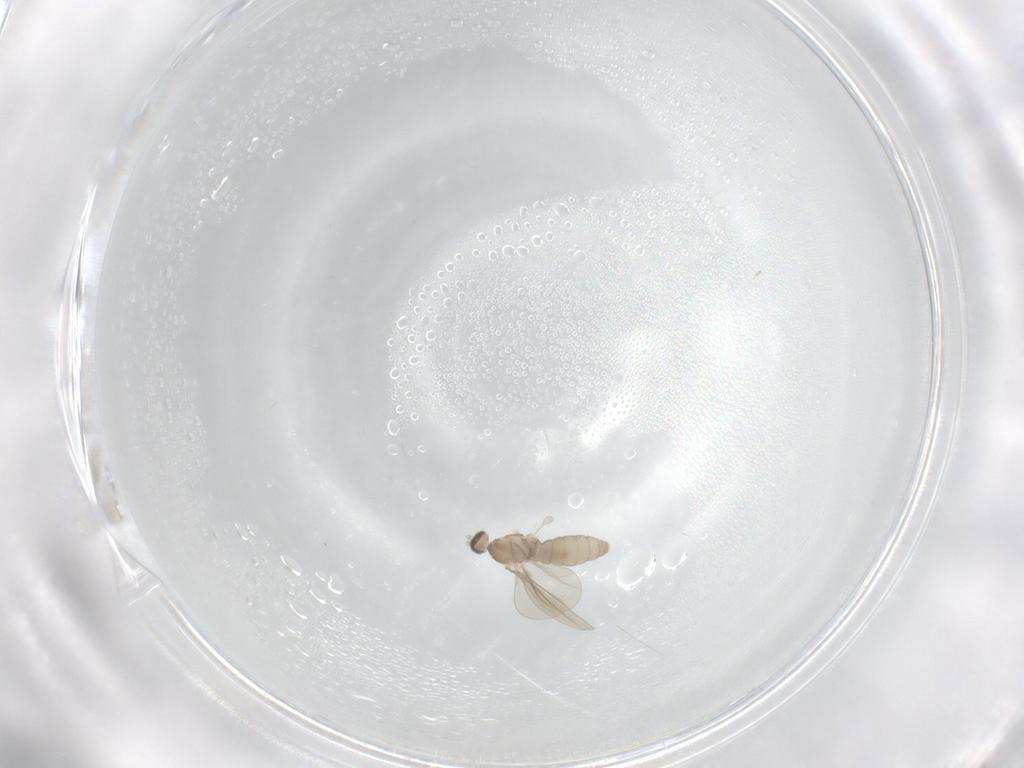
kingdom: Animalia
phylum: Arthropoda
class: Insecta
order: Diptera
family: Cecidomyiidae
